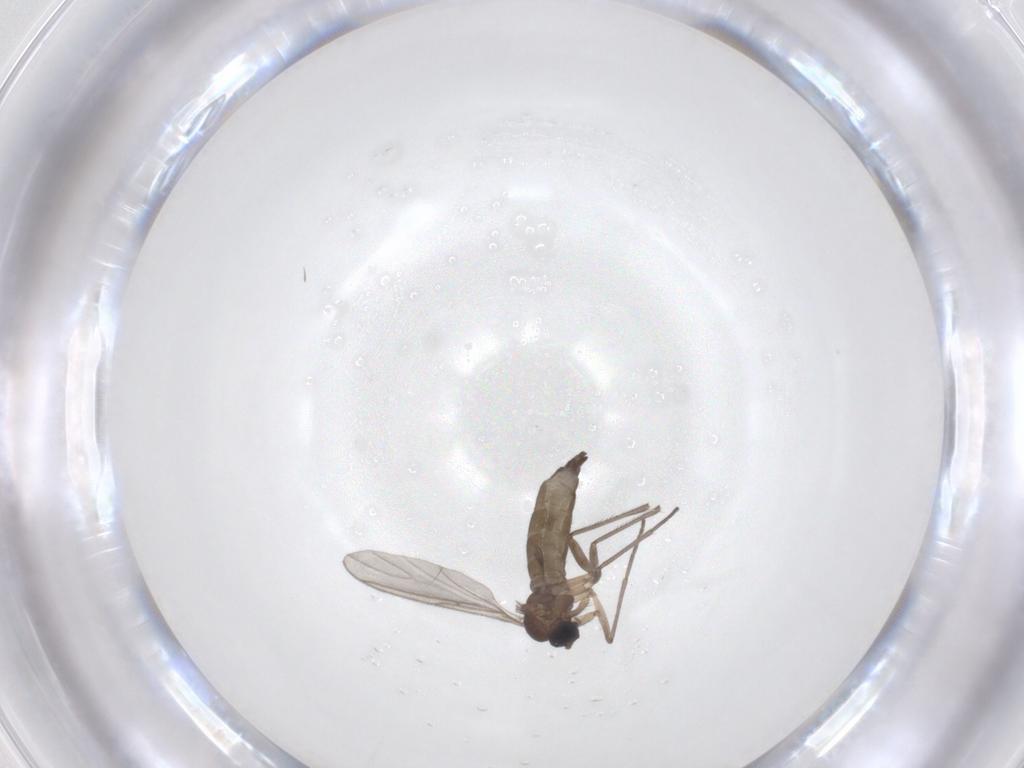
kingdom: Animalia
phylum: Arthropoda
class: Insecta
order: Diptera
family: Sciaridae
